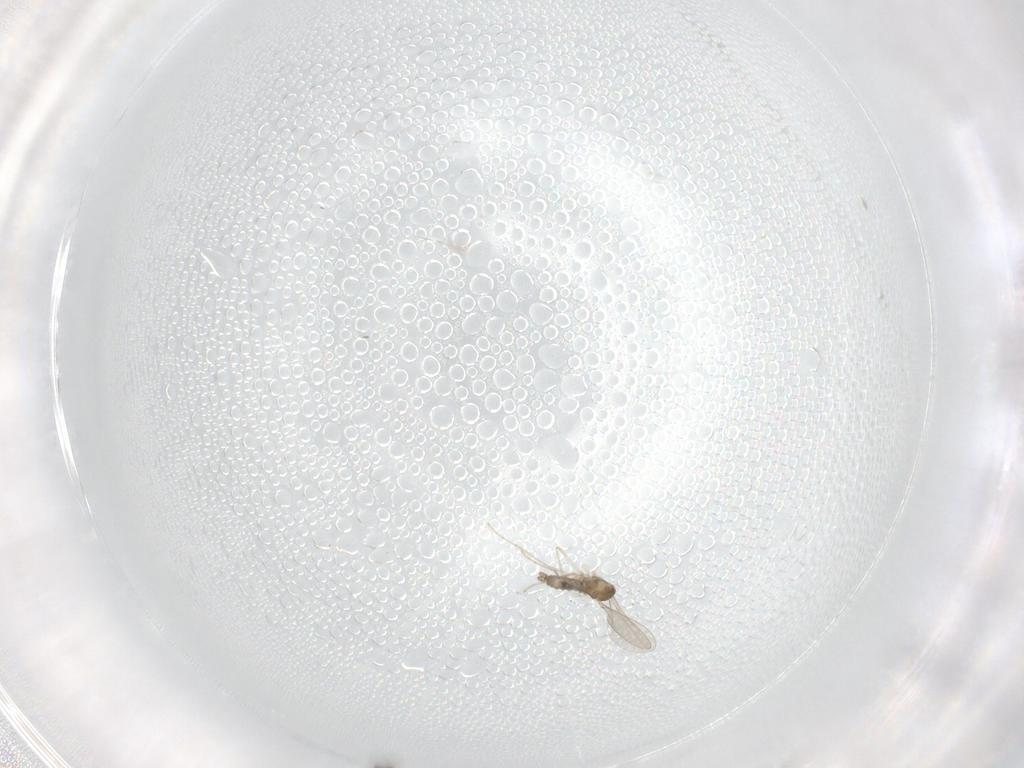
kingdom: Animalia
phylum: Arthropoda
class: Insecta
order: Diptera
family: Cecidomyiidae
